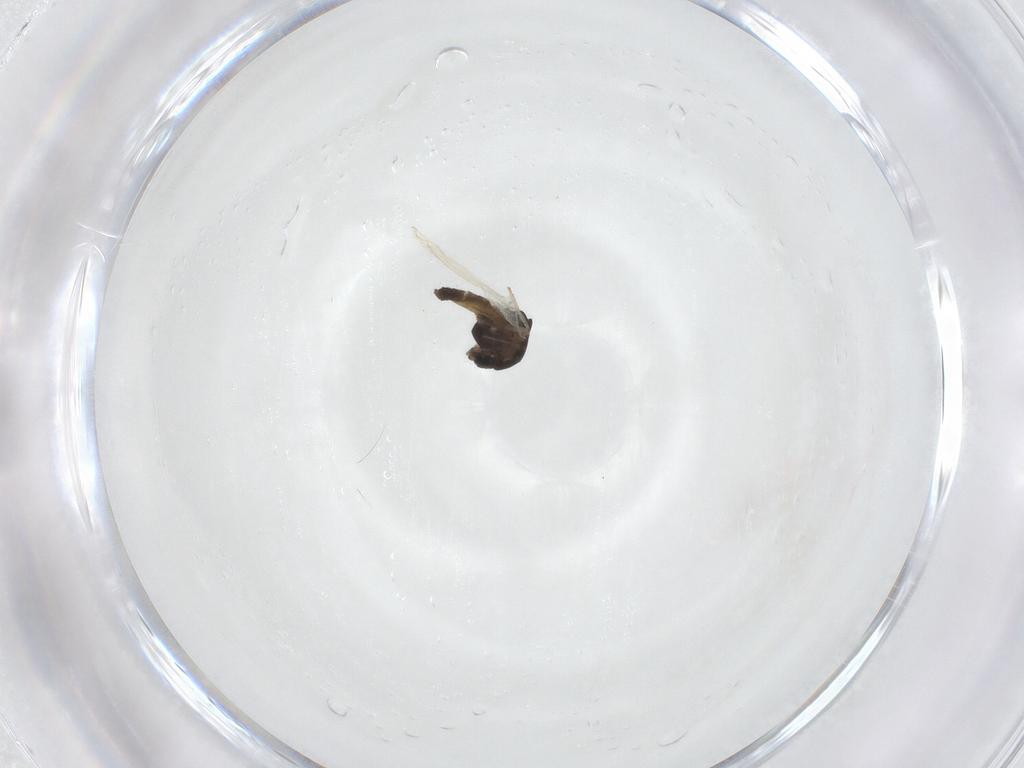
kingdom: Animalia
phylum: Arthropoda
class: Insecta
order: Diptera
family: Chironomidae
